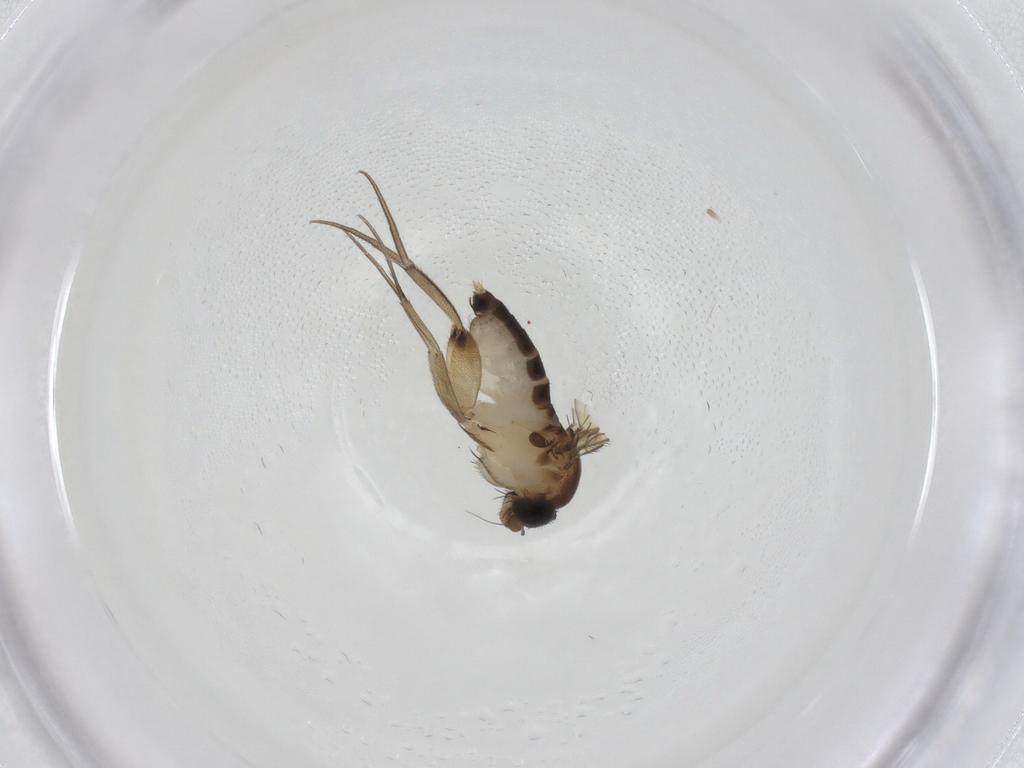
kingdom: Animalia
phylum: Arthropoda
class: Insecta
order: Diptera
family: Phoridae
